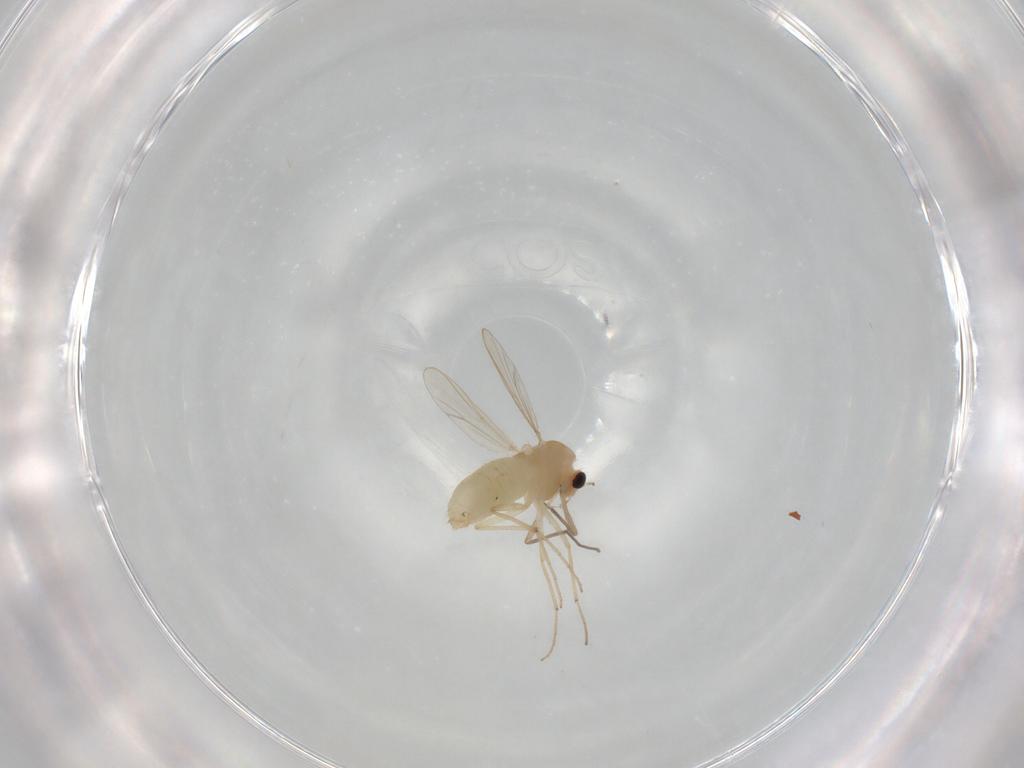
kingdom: Animalia
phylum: Arthropoda
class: Insecta
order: Diptera
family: Chironomidae
